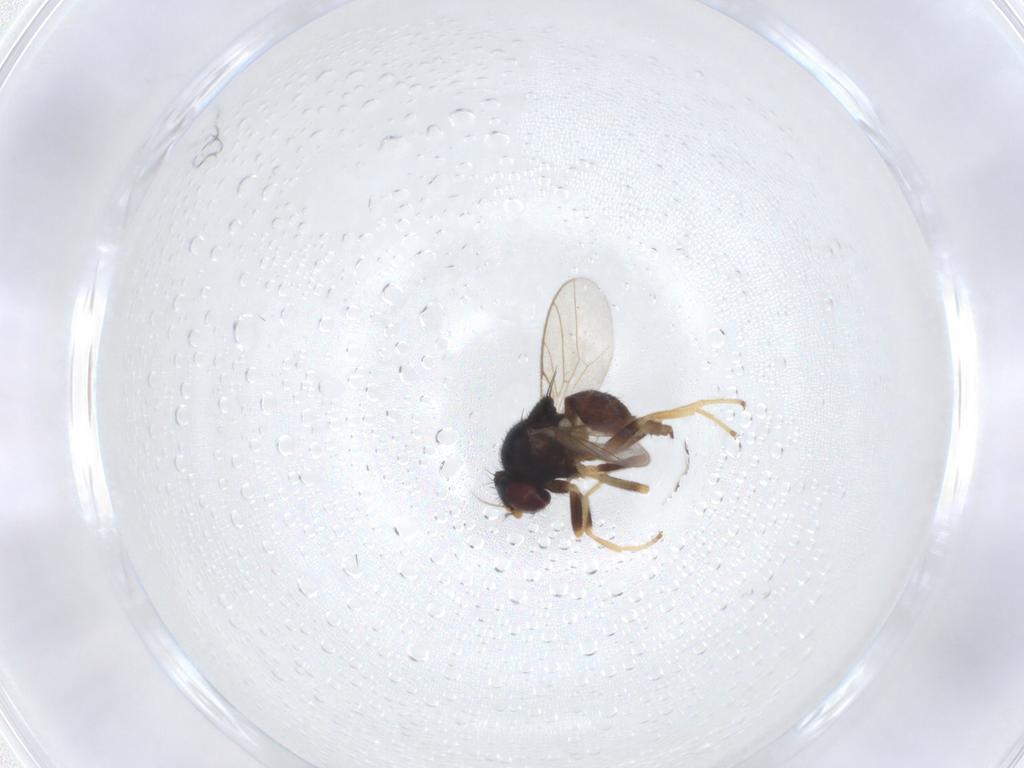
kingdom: Animalia
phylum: Arthropoda
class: Insecta
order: Diptera
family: Chloropidae
